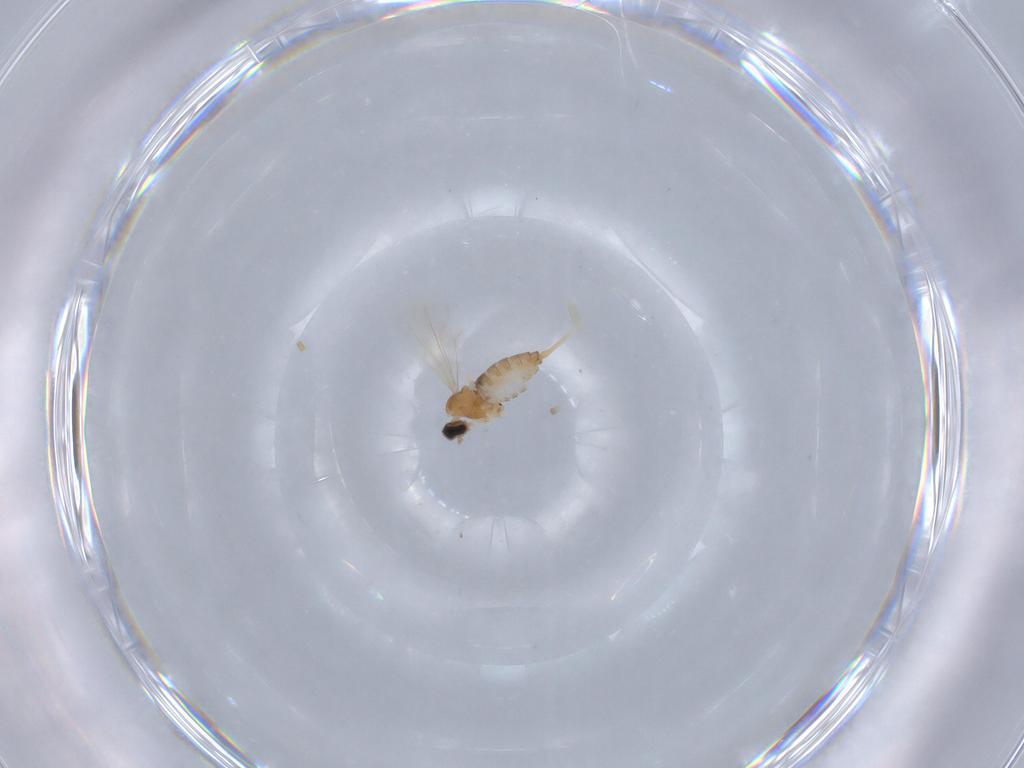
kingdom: Animalia
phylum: Arthropoda
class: Insecta
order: Diptera
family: Cecidomyiidae
